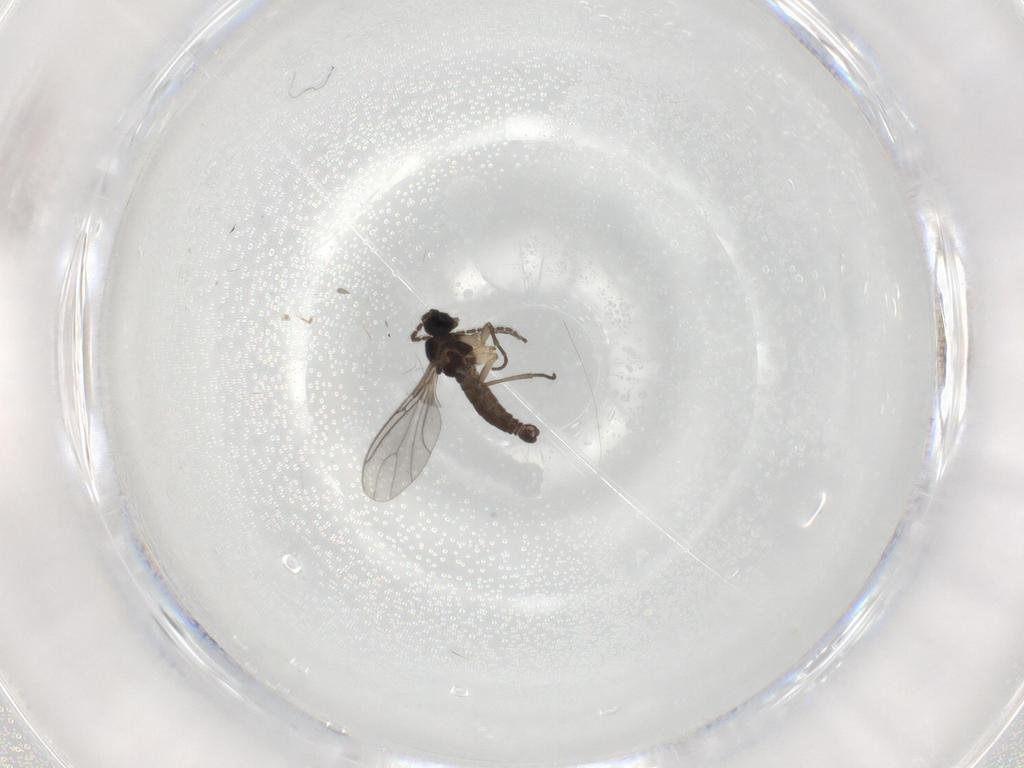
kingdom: Animalia
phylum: Arthropoda
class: Insecta
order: Diptera
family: Sciaridae
